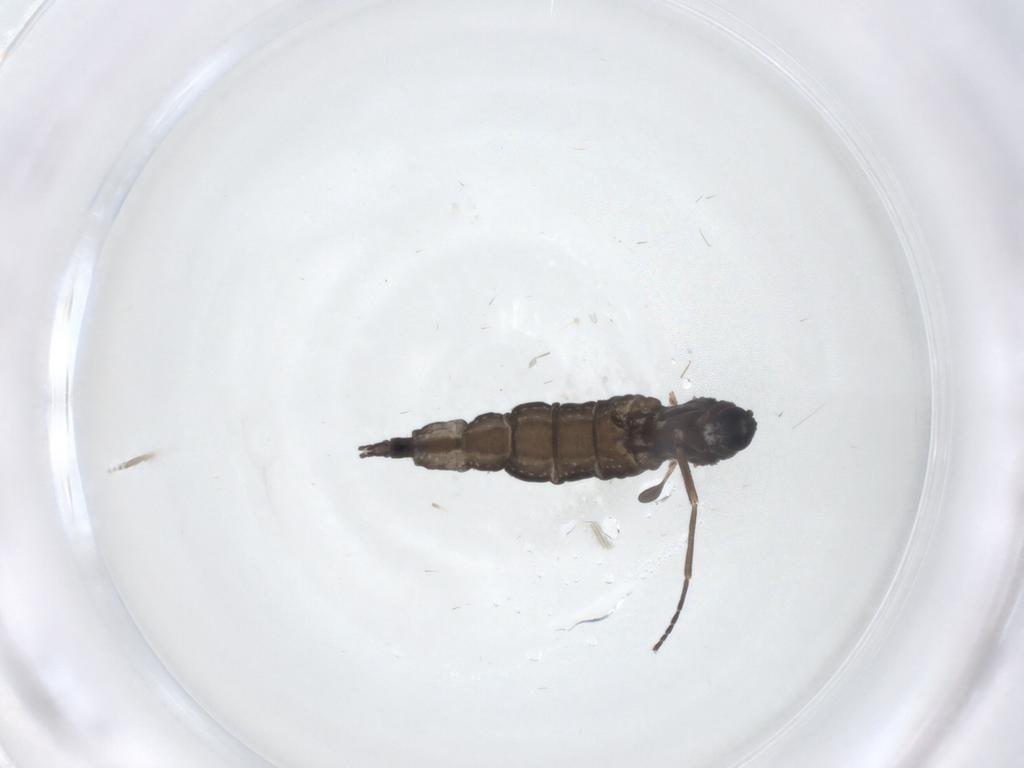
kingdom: Animalia
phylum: Arthropoda
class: Insecta
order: Diptera
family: Sciaridae
